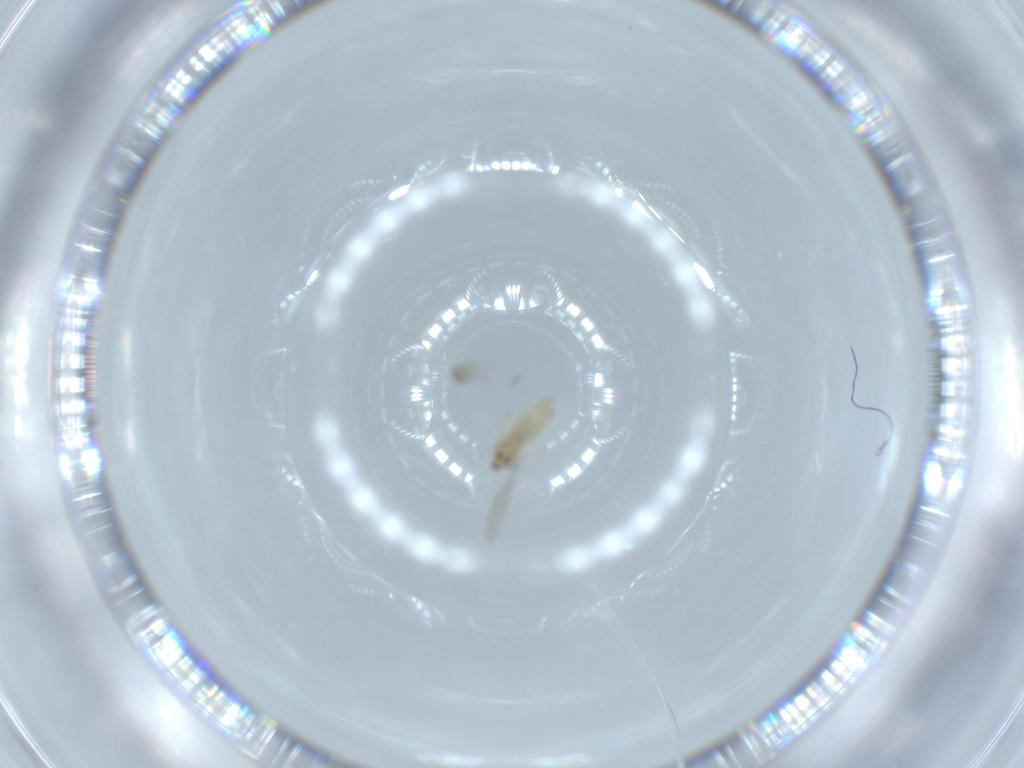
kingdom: Animalia
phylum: Arthropoda
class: Insecta
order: Diptera
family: Cecidomyiidae
